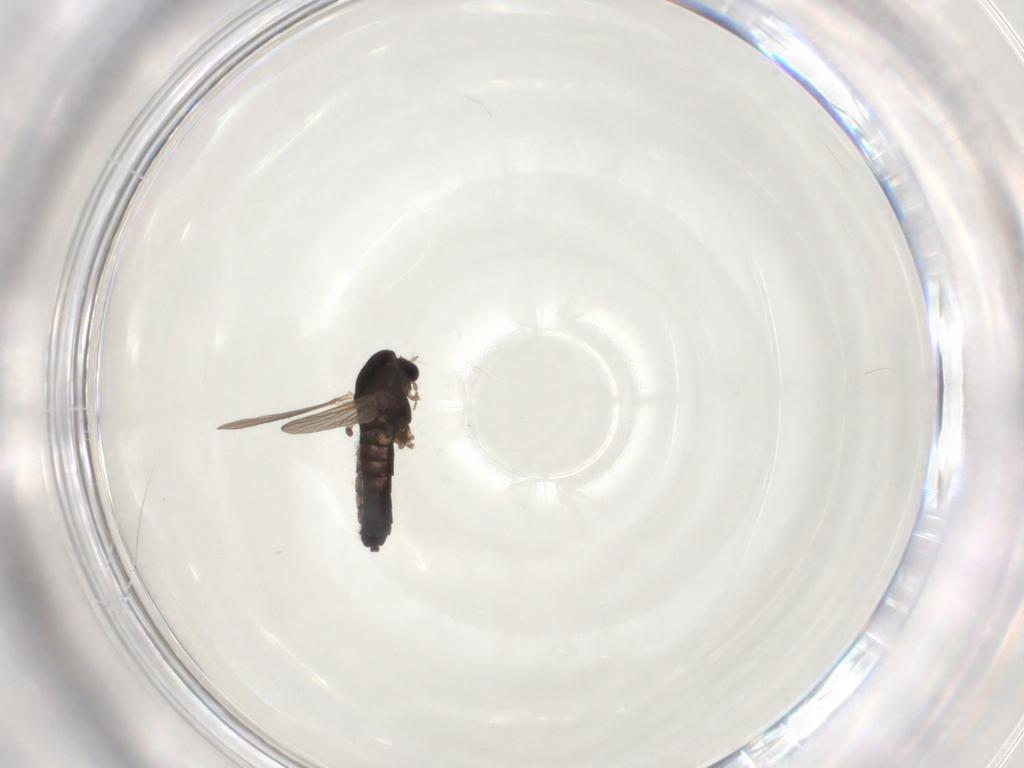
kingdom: Animalia
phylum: Arthropoda
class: Insecta
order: Diptera
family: Chironomidae
